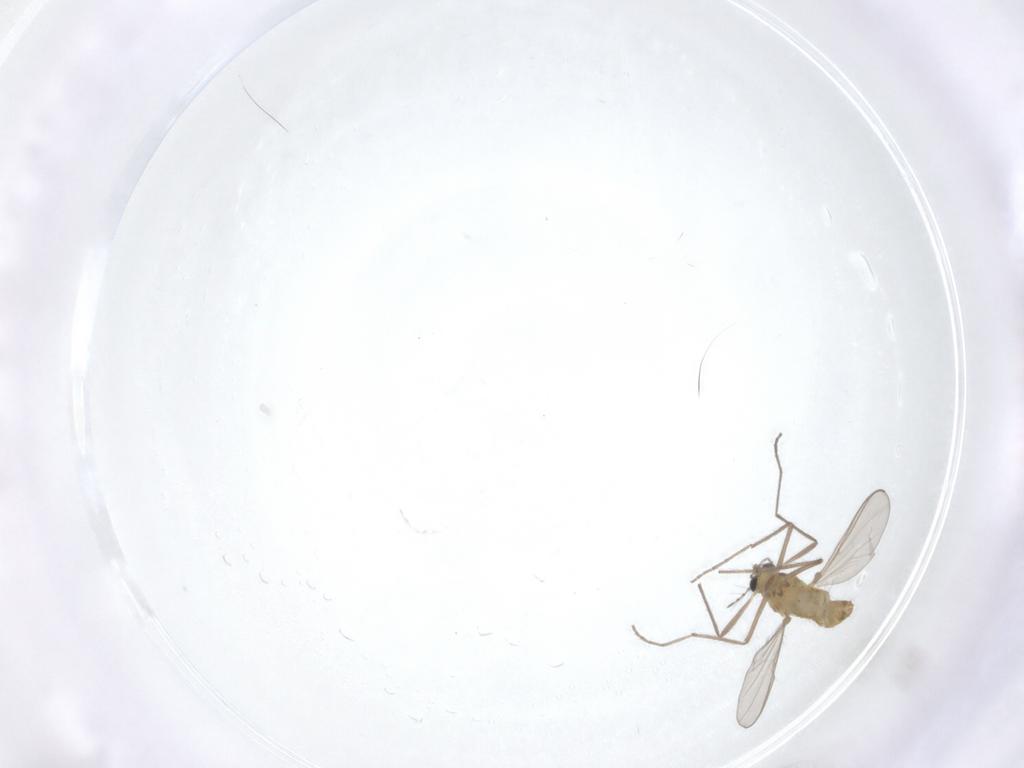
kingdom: Animalia
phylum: Arthropoda
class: Insecta
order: Diptera
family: Chironomidae
